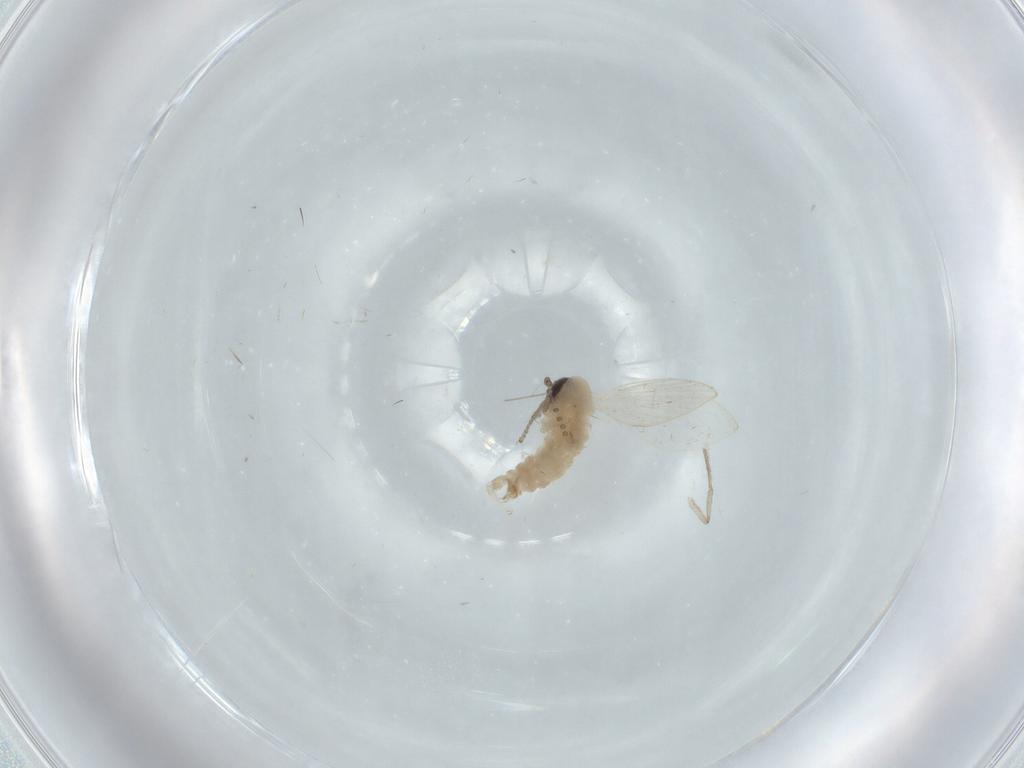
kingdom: Animalia
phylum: Arthropoda
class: Insecta
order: Diptera
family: Psychodidae
